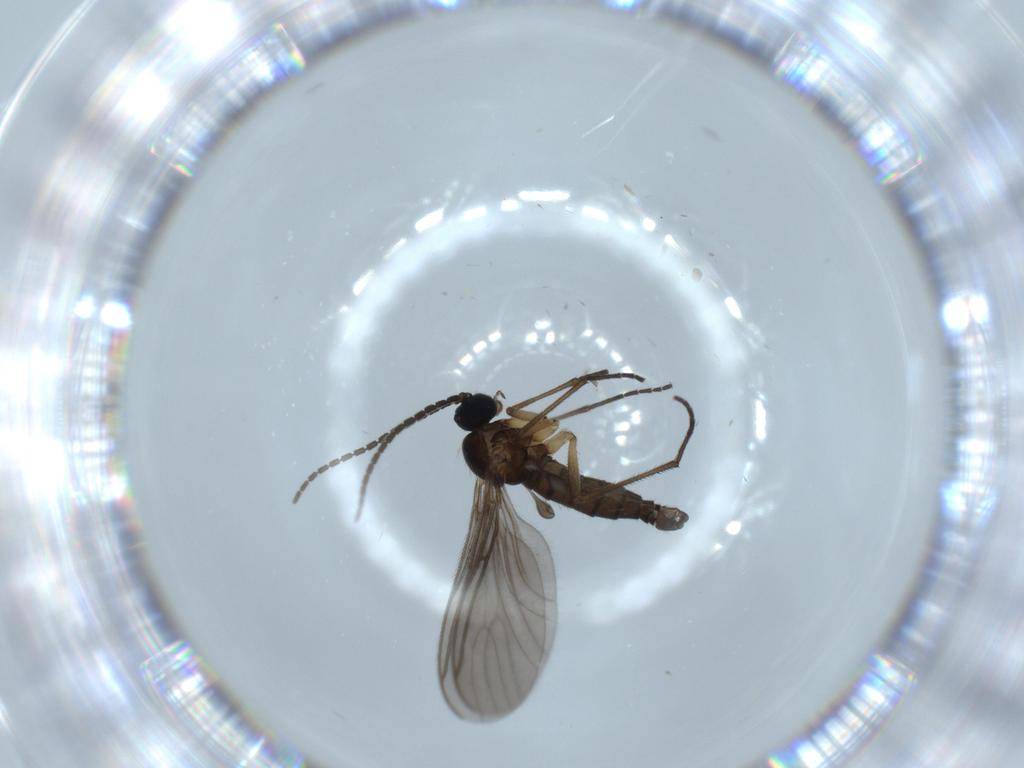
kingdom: Animalia
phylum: Arthropoda
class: Insecta
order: Diptera
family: Sciaridae
